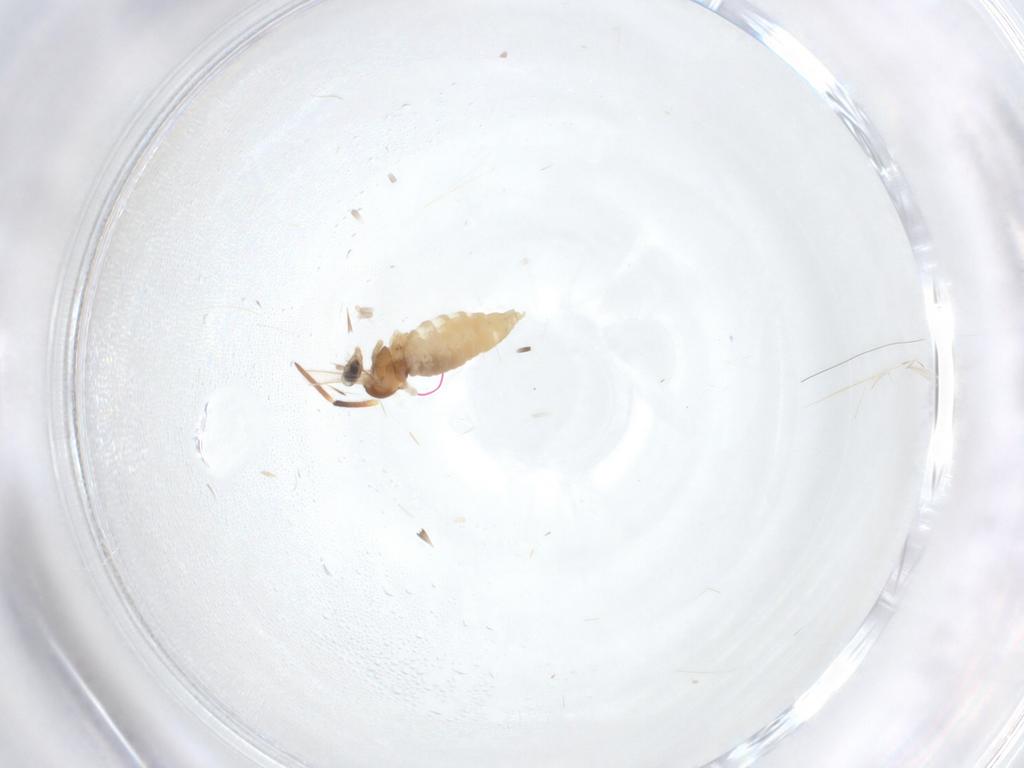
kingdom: Animalia
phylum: Arthropoda
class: Insecta
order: Diptera
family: Cecidomyiidae
